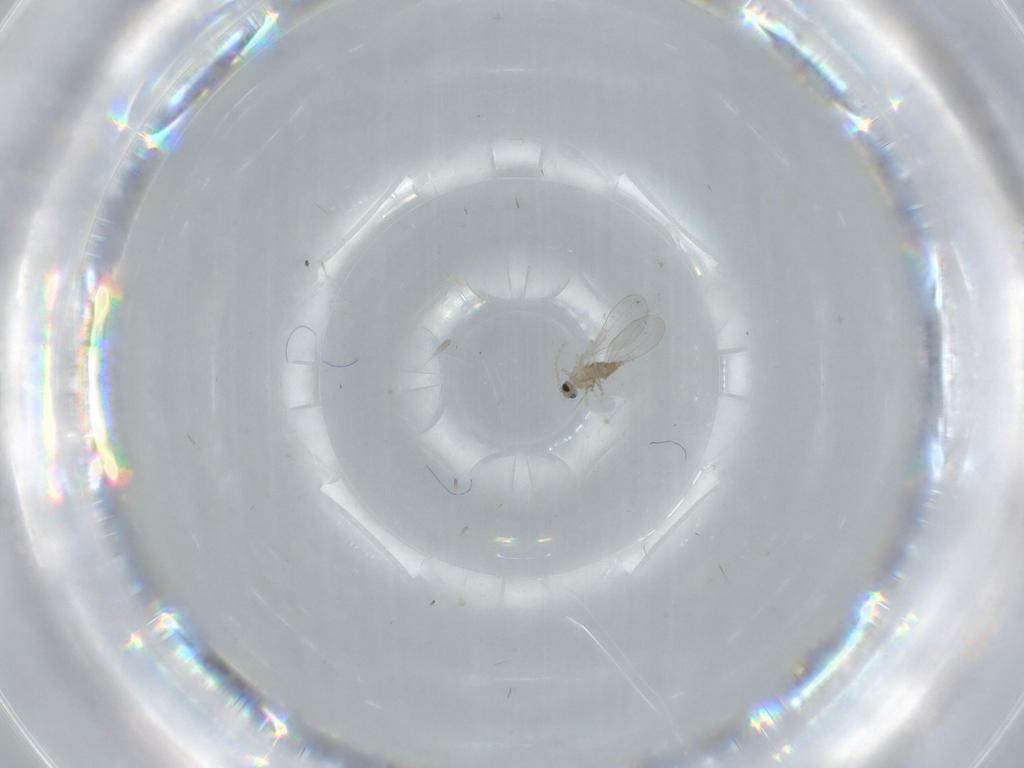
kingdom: Animalia
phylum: Arthropoda
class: Insecta
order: Diptera
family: Cecidomyiidae
